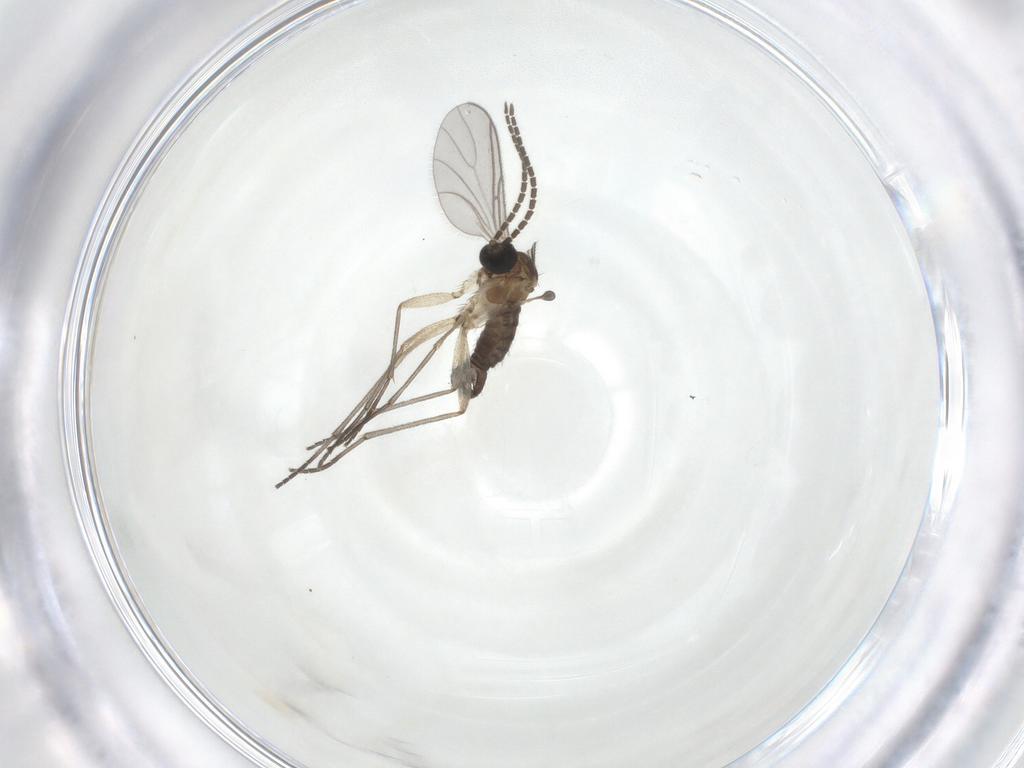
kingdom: Animalia
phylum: Arthropoda
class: Insecta
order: Diptera
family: Sciaridae
